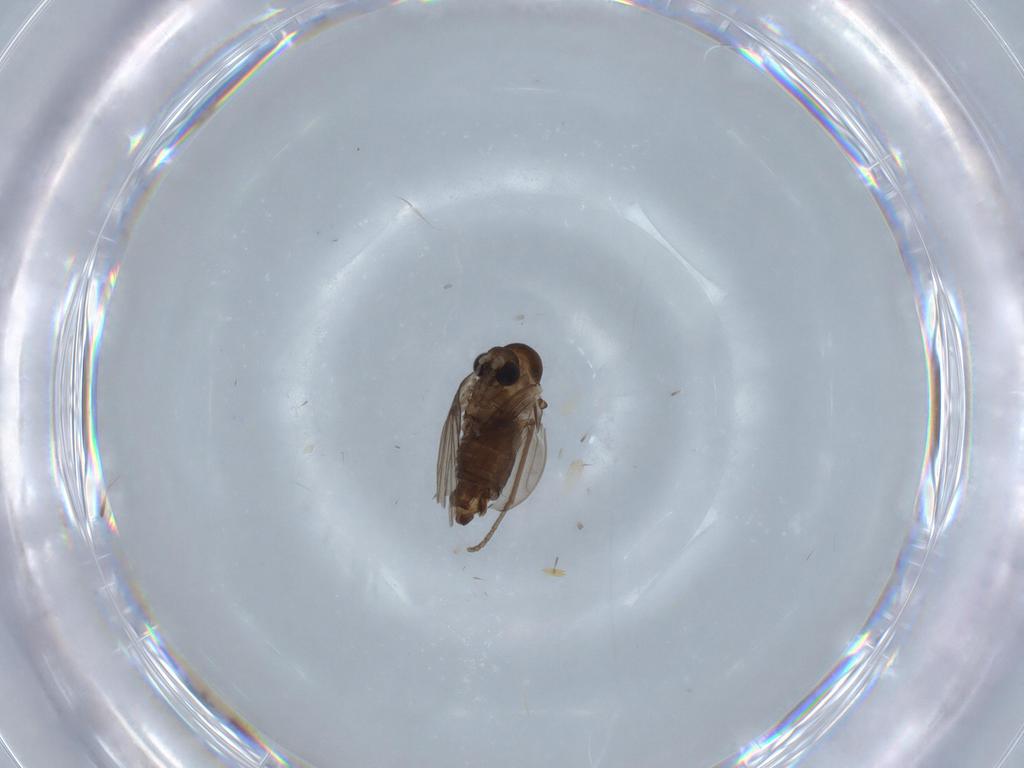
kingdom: Animalia
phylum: Arthropoda
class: Insecta
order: Diptera
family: Psychodidae
